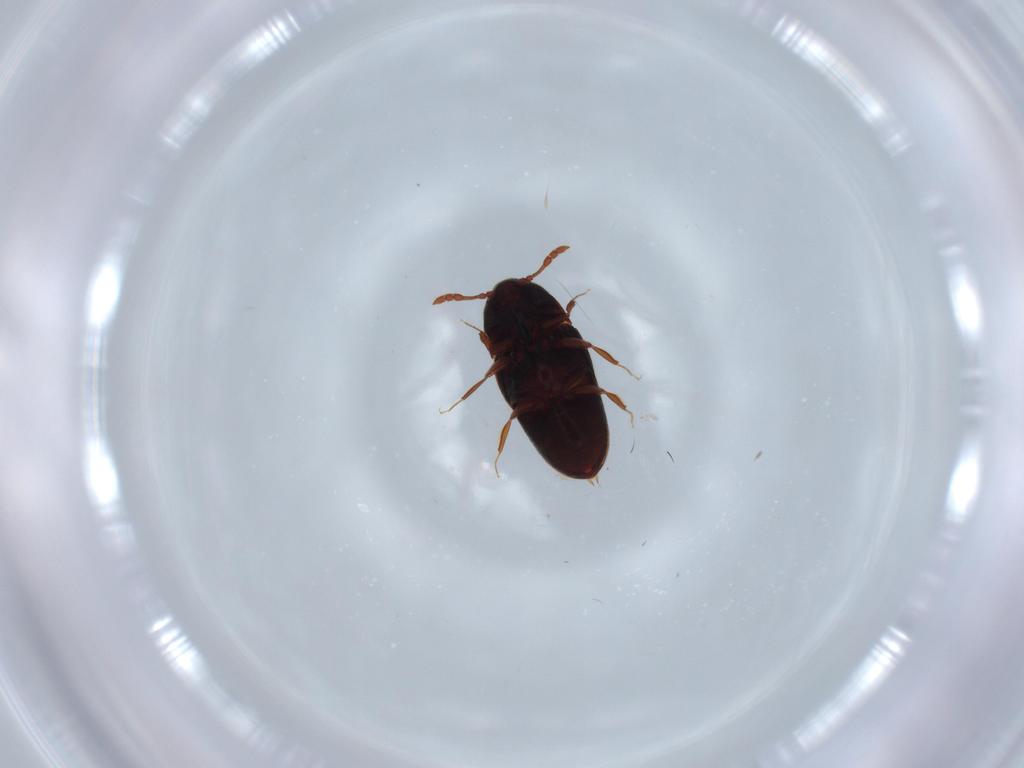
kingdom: Animalia
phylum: Arthropoda
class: Insecta
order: Coleoptera
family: Throscidae
